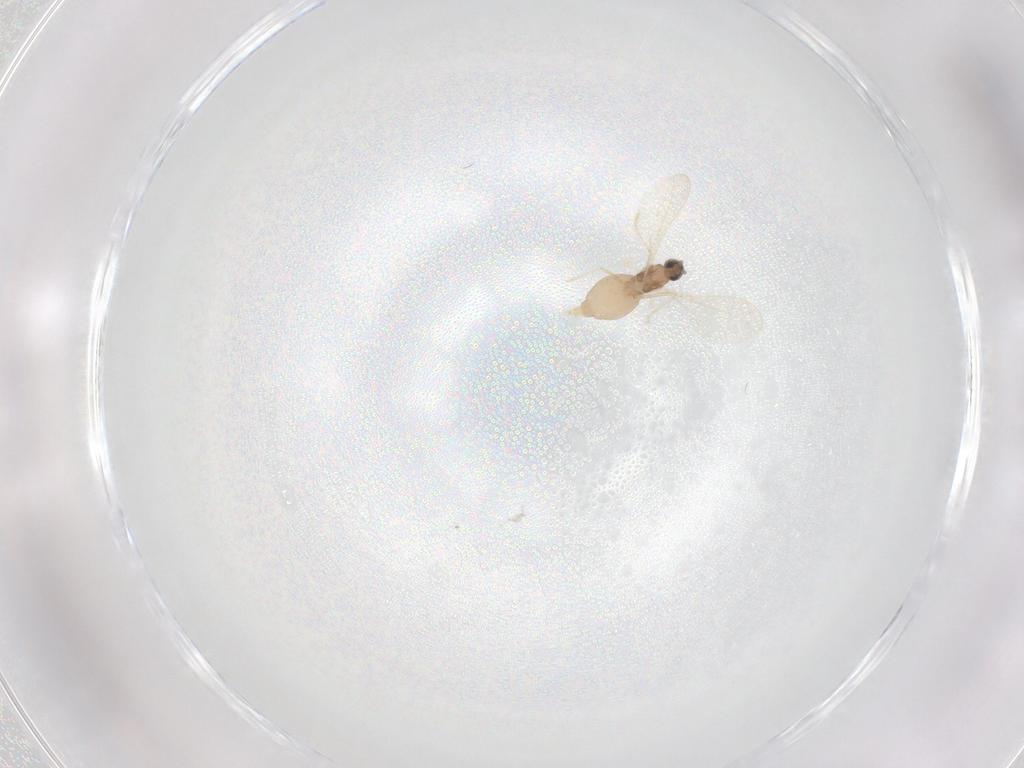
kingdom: Animalia
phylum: Arthropoda
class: Insecta
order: Diptera
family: Cecidomyiidae
